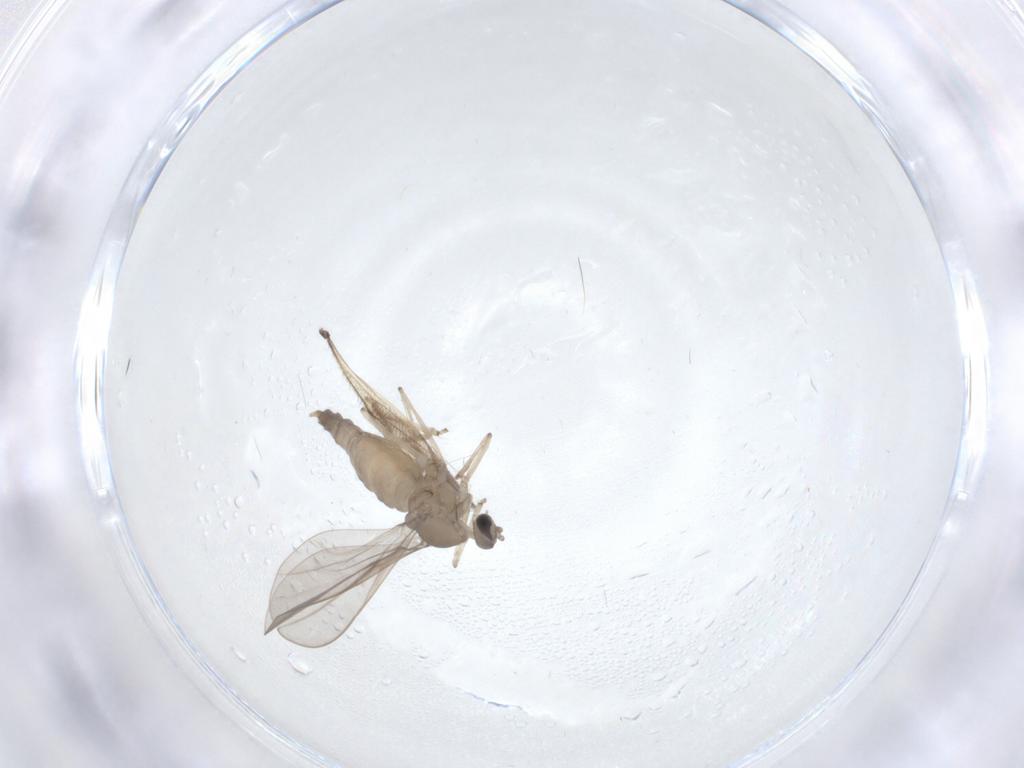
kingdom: Animalia
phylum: Arthropoda
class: Insecta
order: Diptera
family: Cecidomyiidae
